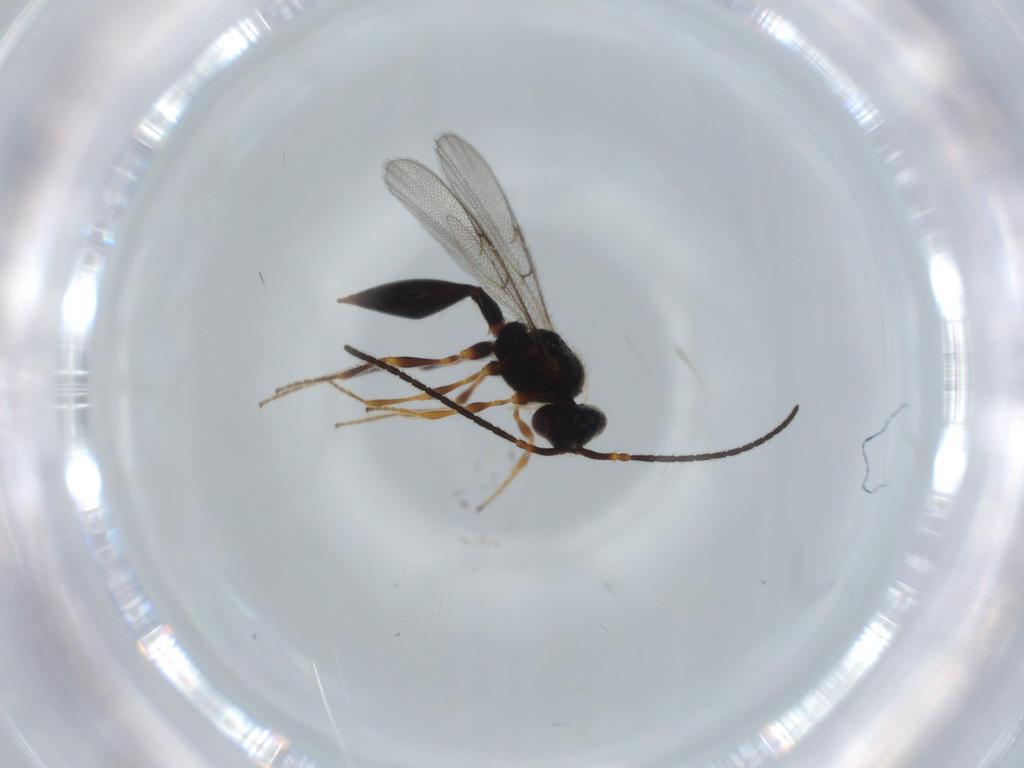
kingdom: Animalia
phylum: Arthropoda
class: Insecta
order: Hymenoptera
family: Diapriidae
